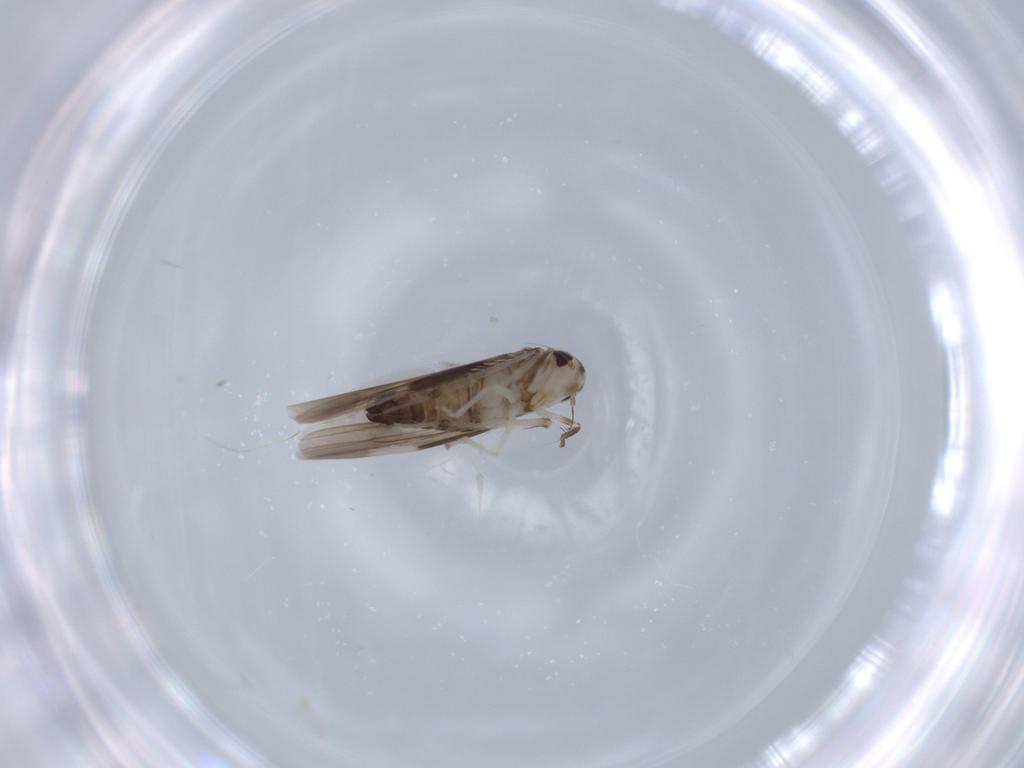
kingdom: Animalia
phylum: Arthropoda
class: Insecta
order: Hemiptera
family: Cicadellidae
